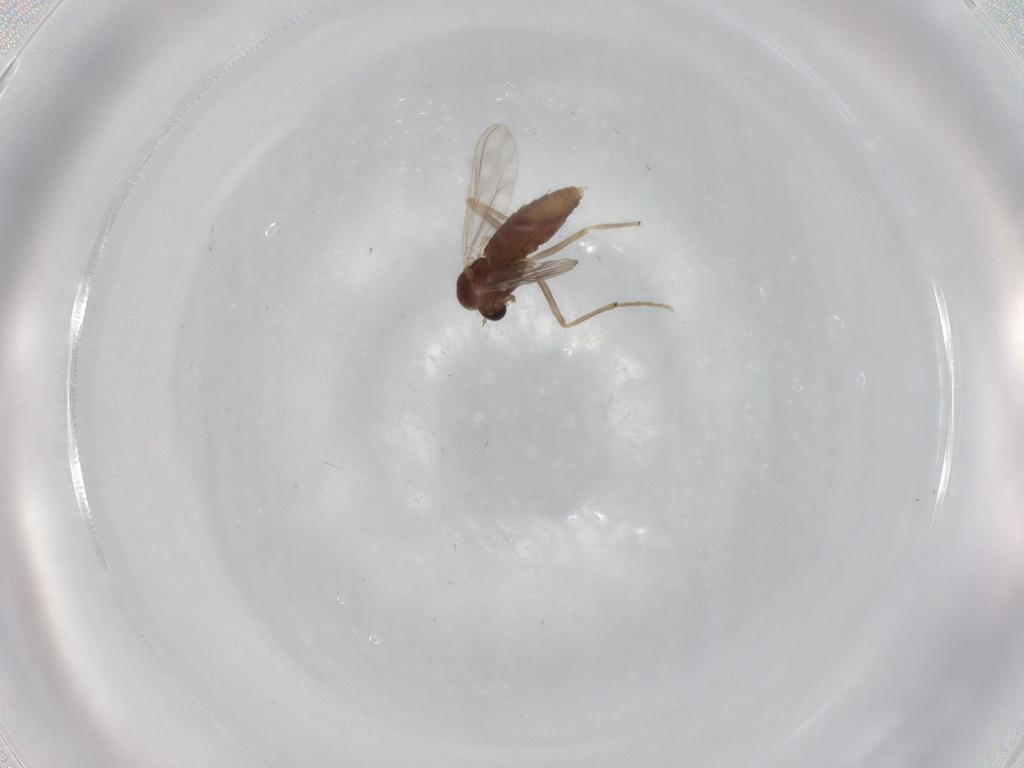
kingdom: Animalia
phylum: Arthropoda
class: Insecta
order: Diptera
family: Chironomidae
